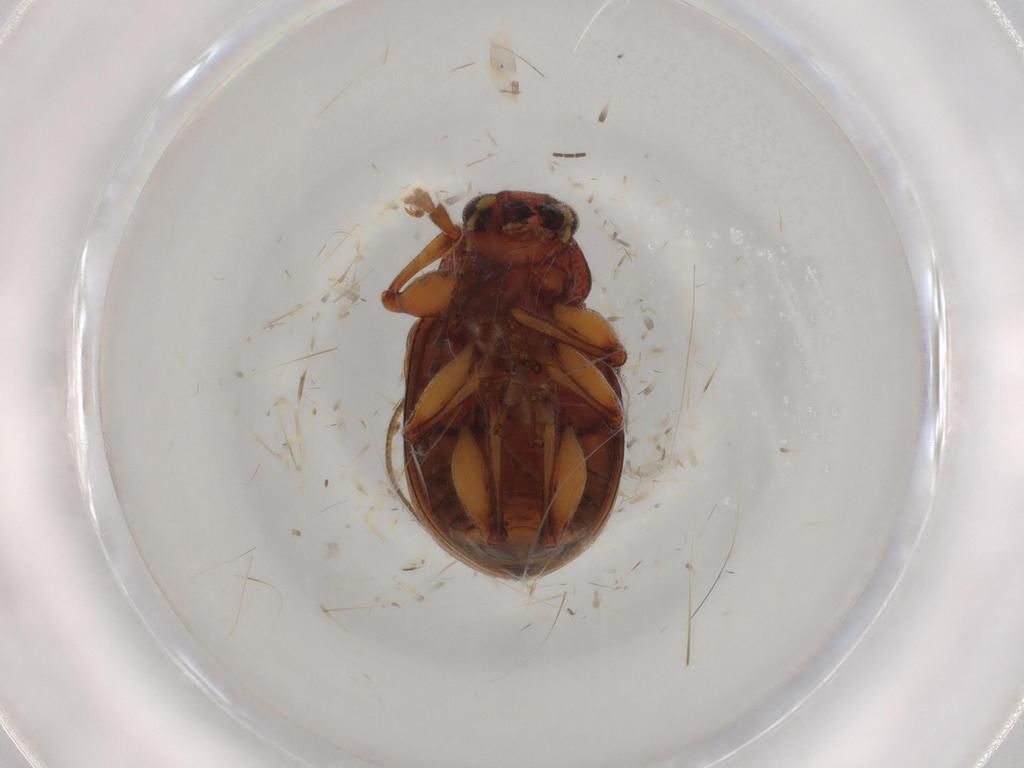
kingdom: Animalia
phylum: Arthropoda
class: Insecta
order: Coleoptera
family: Chrysomelidae
